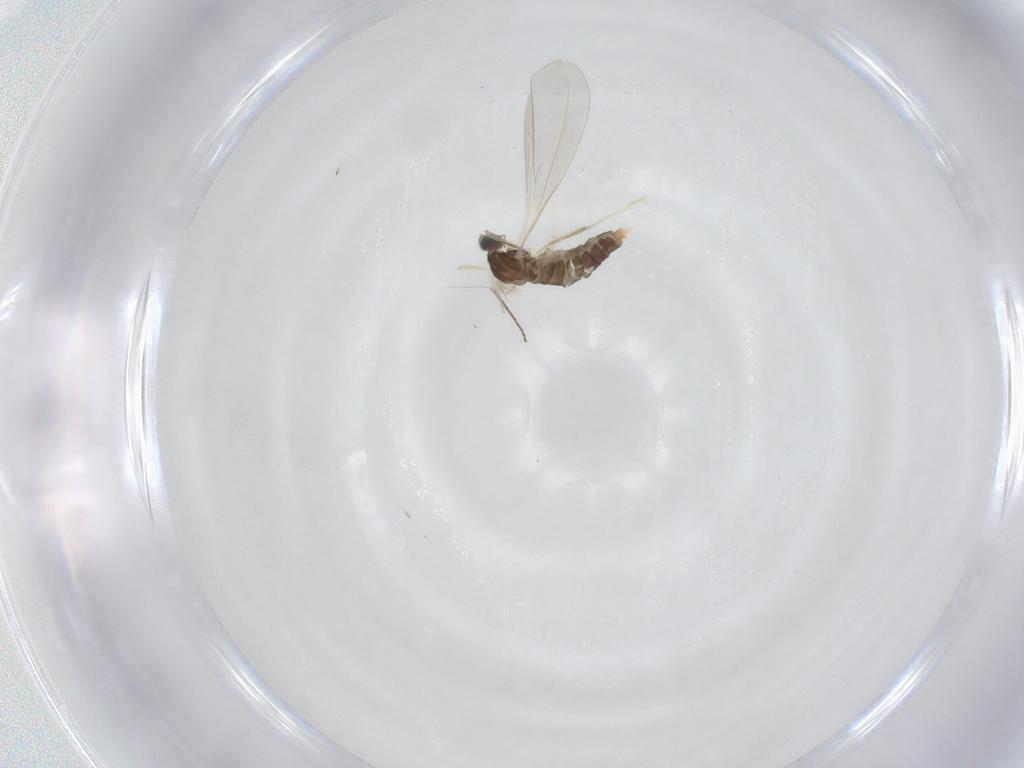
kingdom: Animalia
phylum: Arthropoda
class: Insecta
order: Diptera
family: Cecidomyiidae
